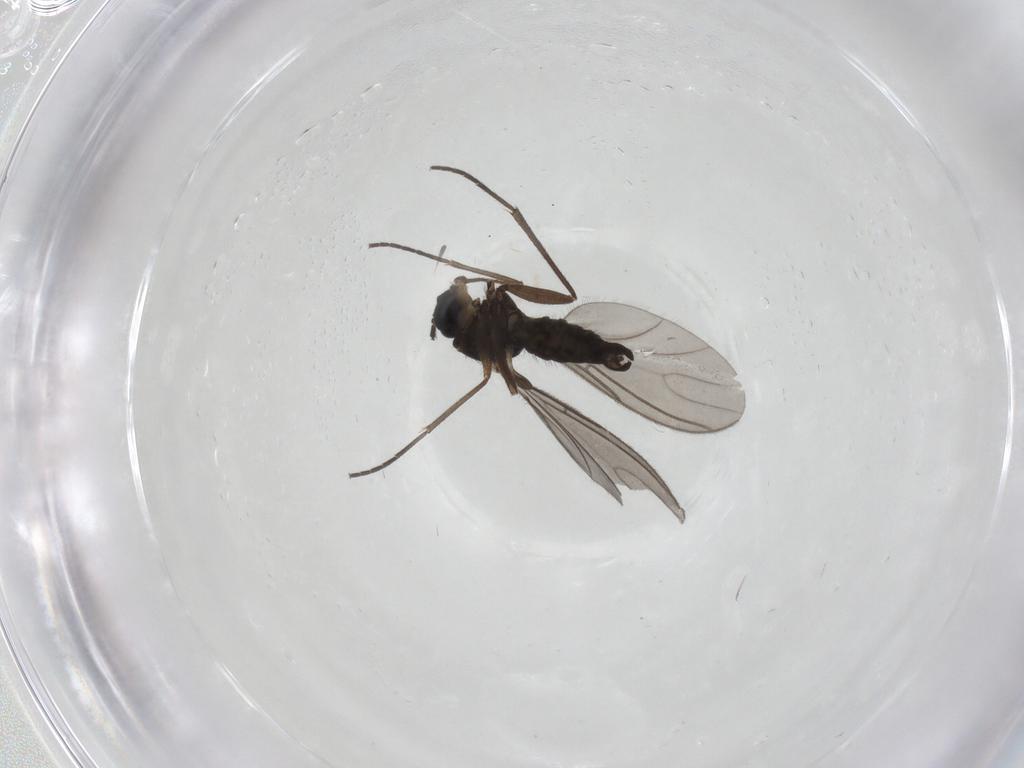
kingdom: Animalia
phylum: Arthropoda
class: Insecta
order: Diptera
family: Sciaridae
